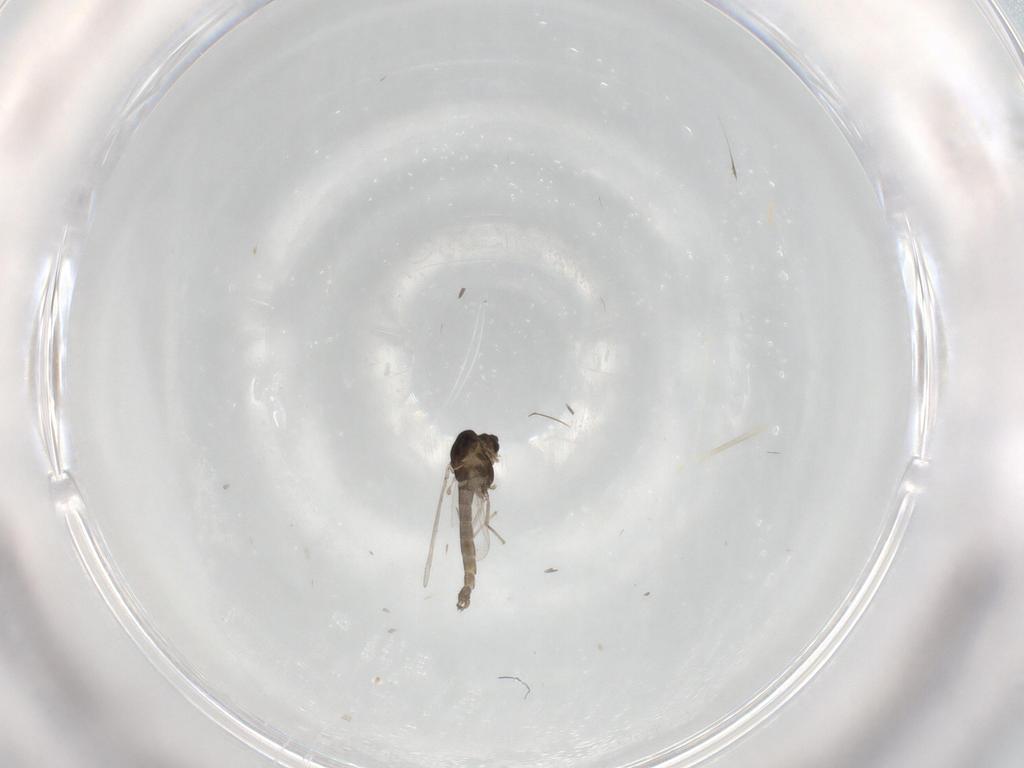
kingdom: Animalia
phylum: Arthropoda
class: Insecta
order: Diptera
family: Cecidomyiidae
